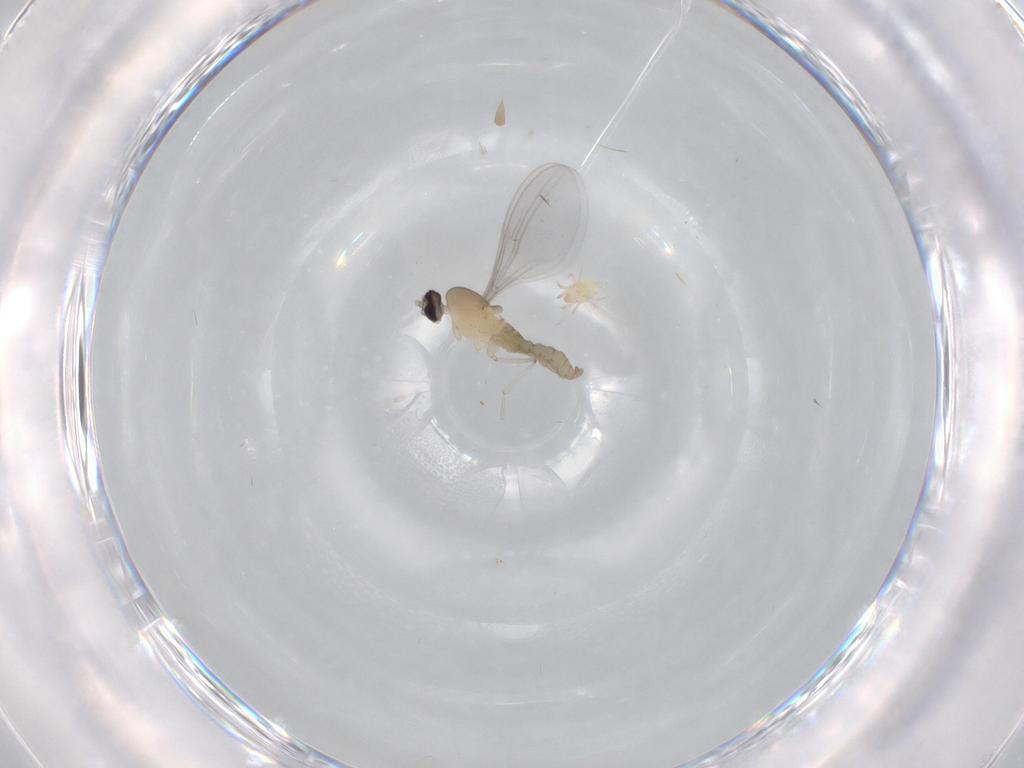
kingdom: Animalia
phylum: Arthropoda
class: Insecta
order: Diptera
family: Cecidomyiidae
